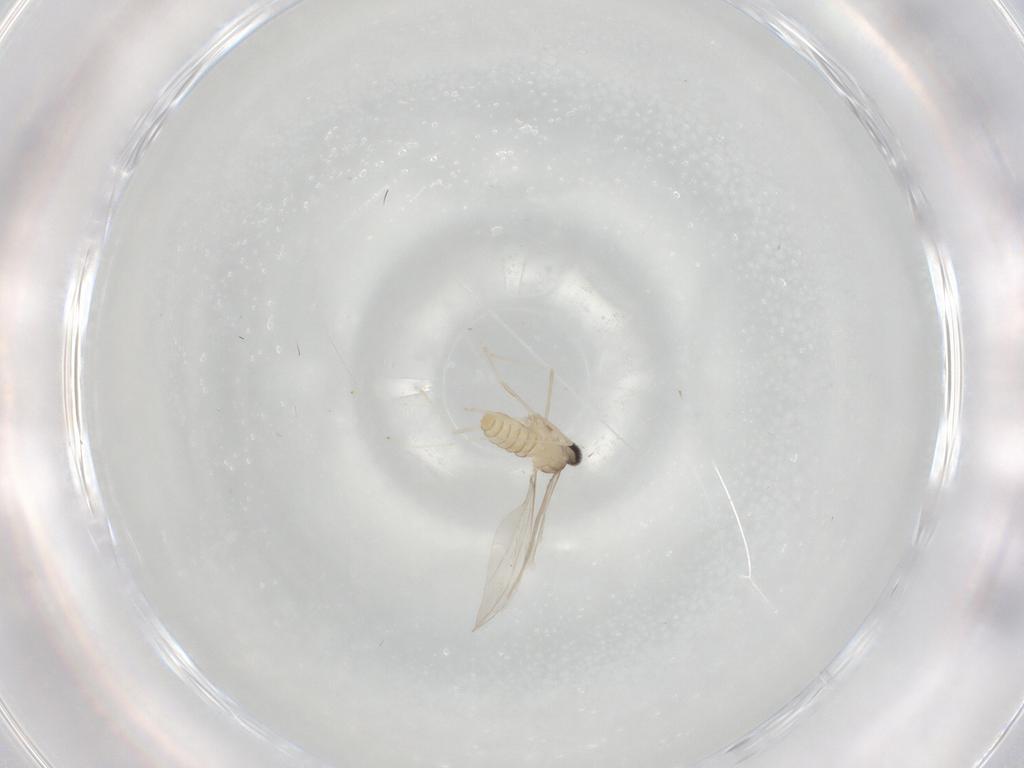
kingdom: Animalia
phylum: Arthropoda
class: Insecta
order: Diptera
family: Cecidomyiidae
